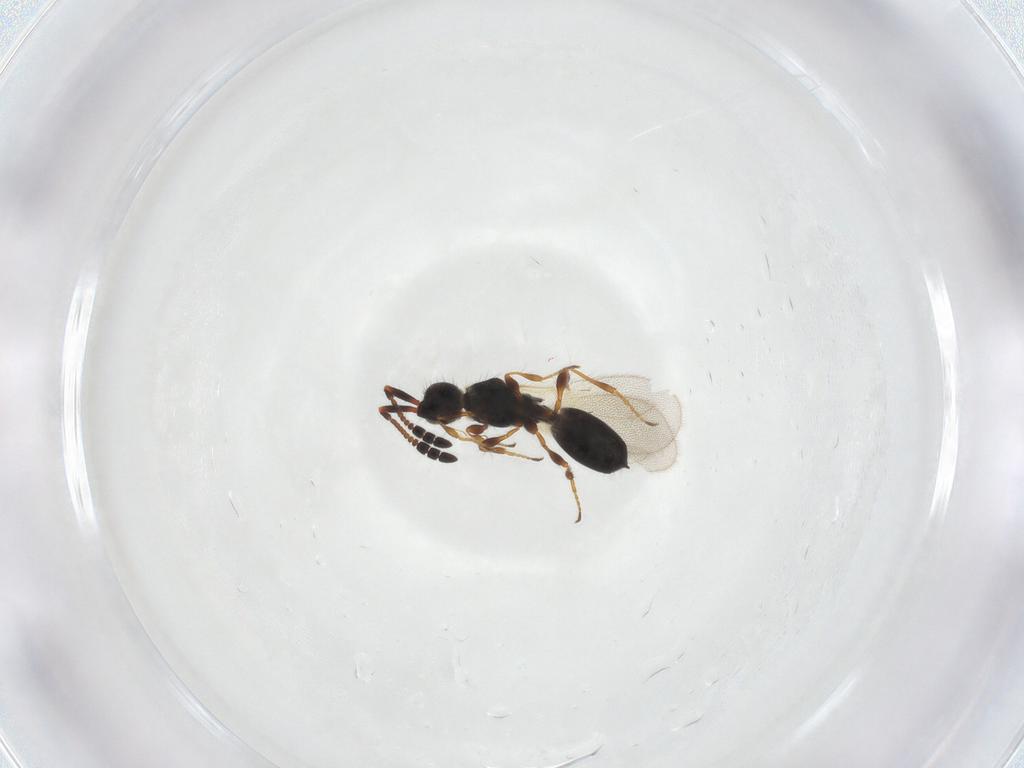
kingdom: Animalia
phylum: Arthropoda
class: Insecta
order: Hymenoptera
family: Diapriidae
